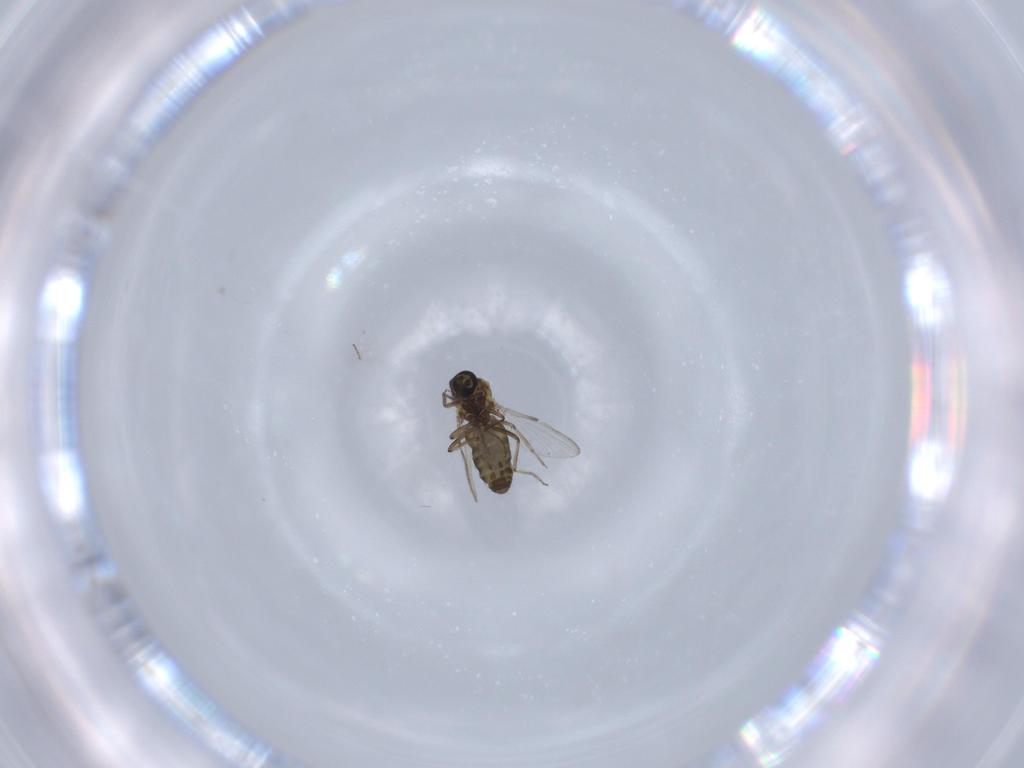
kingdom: Animalia
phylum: Arthropoda
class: Insecta
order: Diptera
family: Ceratopogonidae
